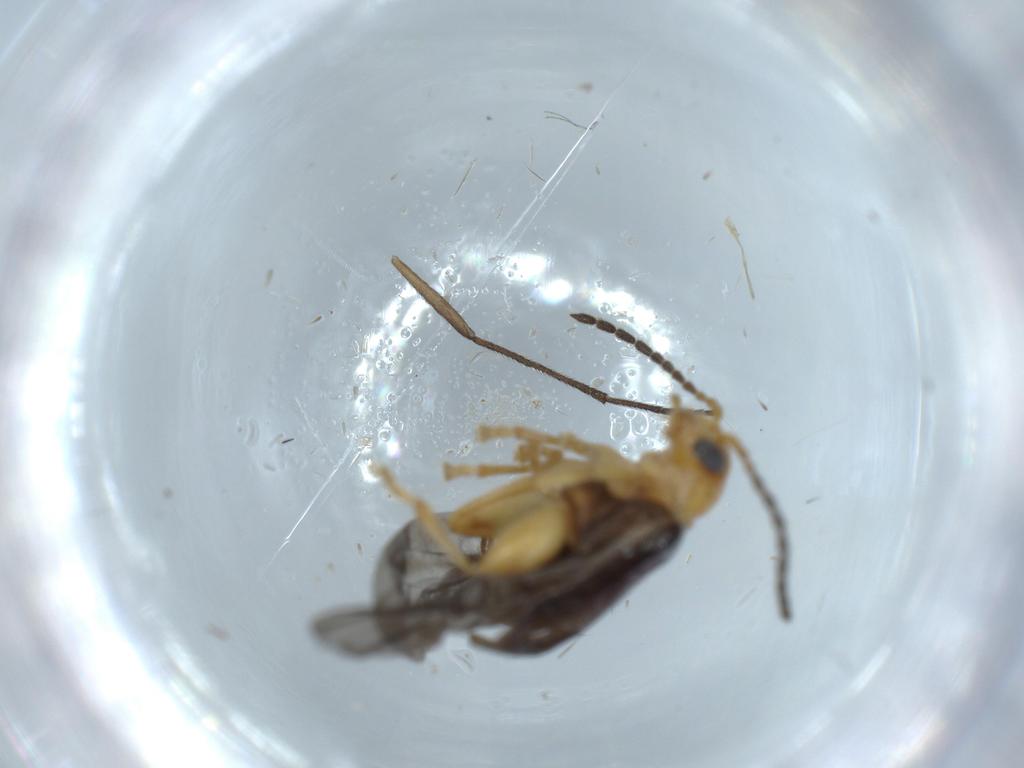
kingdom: Animalia
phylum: Arthropoda
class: Insecta
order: Coleoptera
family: Chrysomelidae
